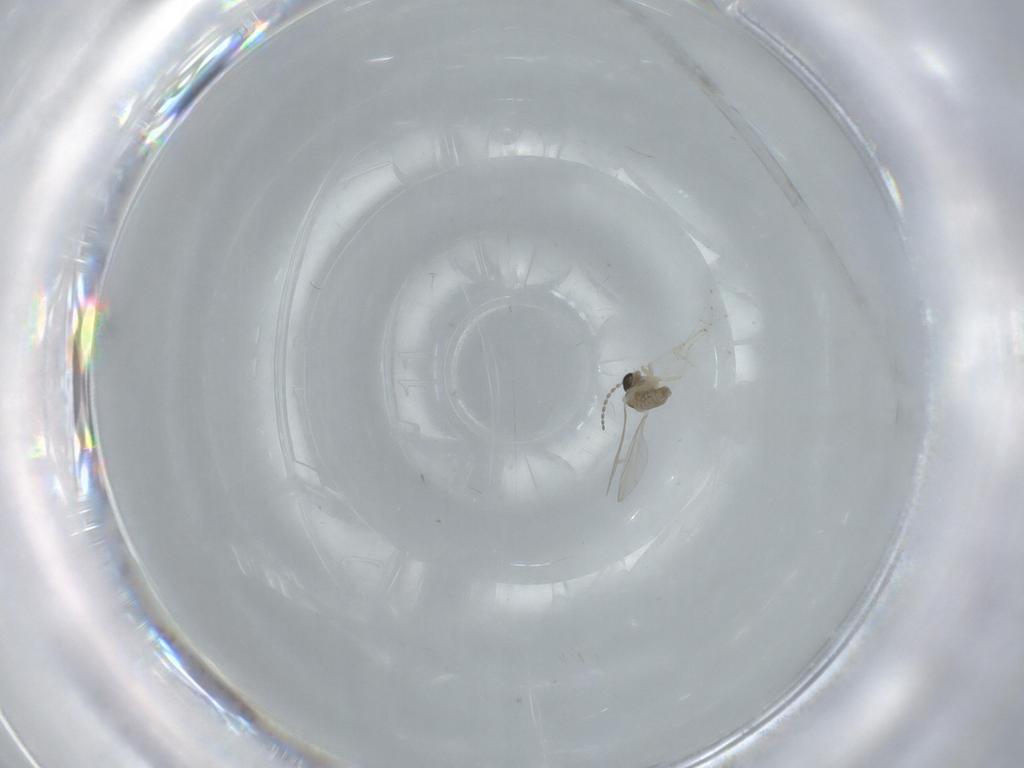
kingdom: Animalia
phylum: Arthropoda
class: Insecta
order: Diptera
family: Cecidomyiidae
